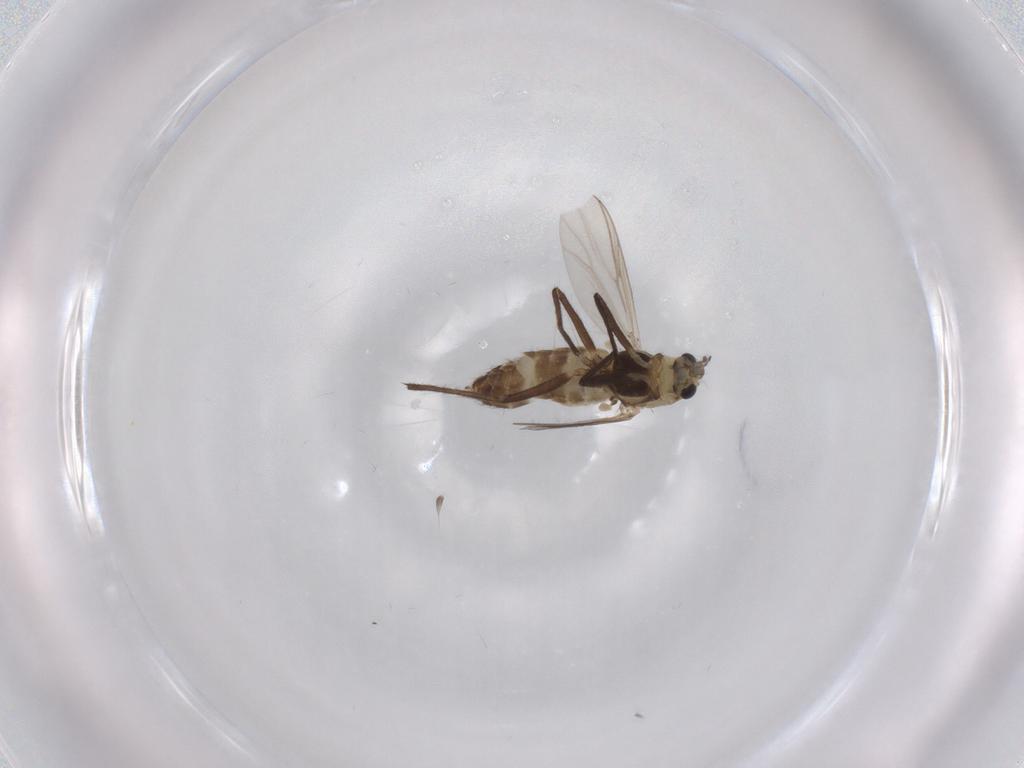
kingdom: Animalia
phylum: Arthropoda
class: Insecta
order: Diptera
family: Chironomidae
